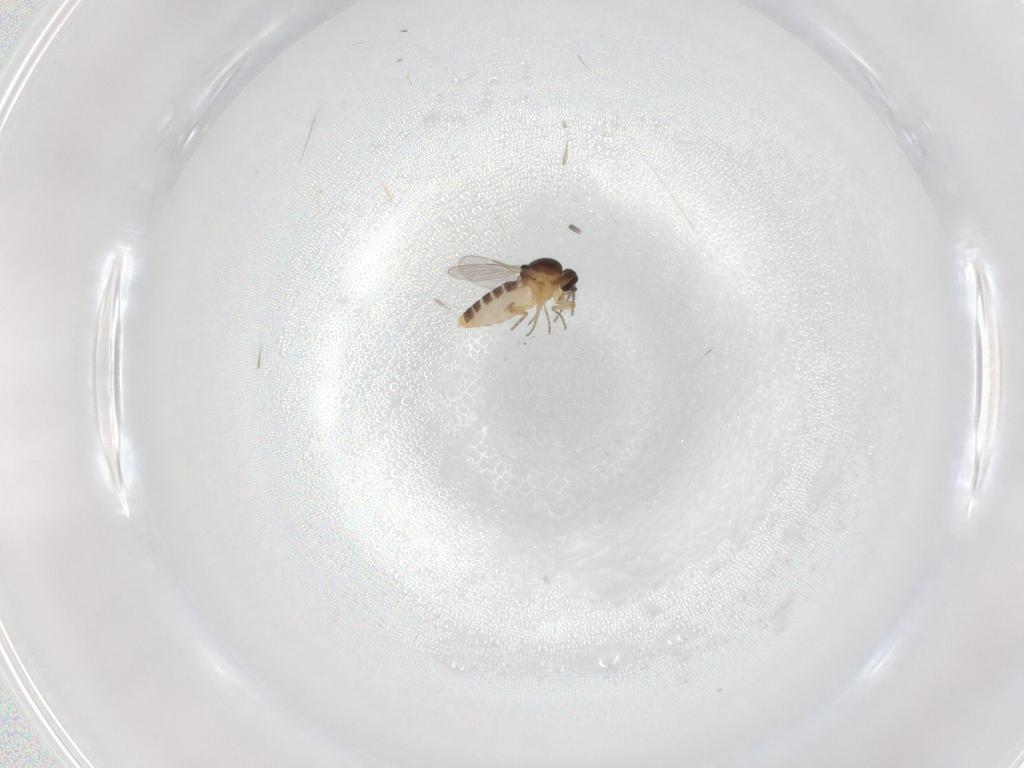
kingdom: Animalia
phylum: Arthropoda
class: Insecta
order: Diptera
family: Ceratopogonidae
